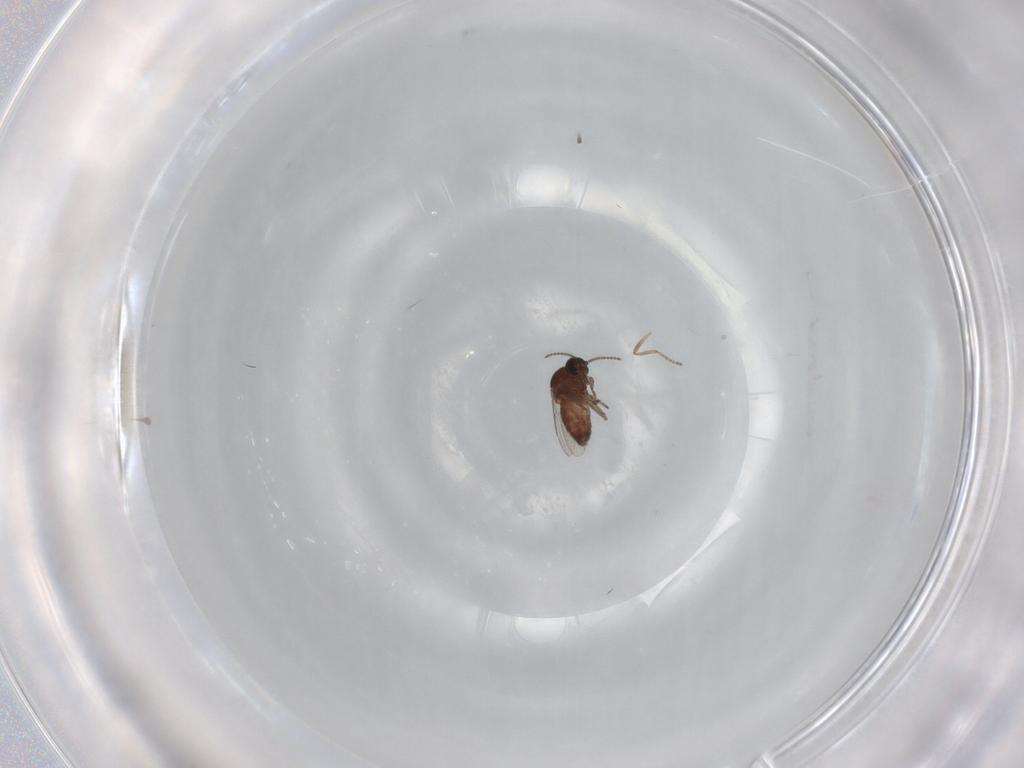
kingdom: Animalia
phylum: Arthropoda
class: Insecta
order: Diptera
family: Ceratopogonidae
